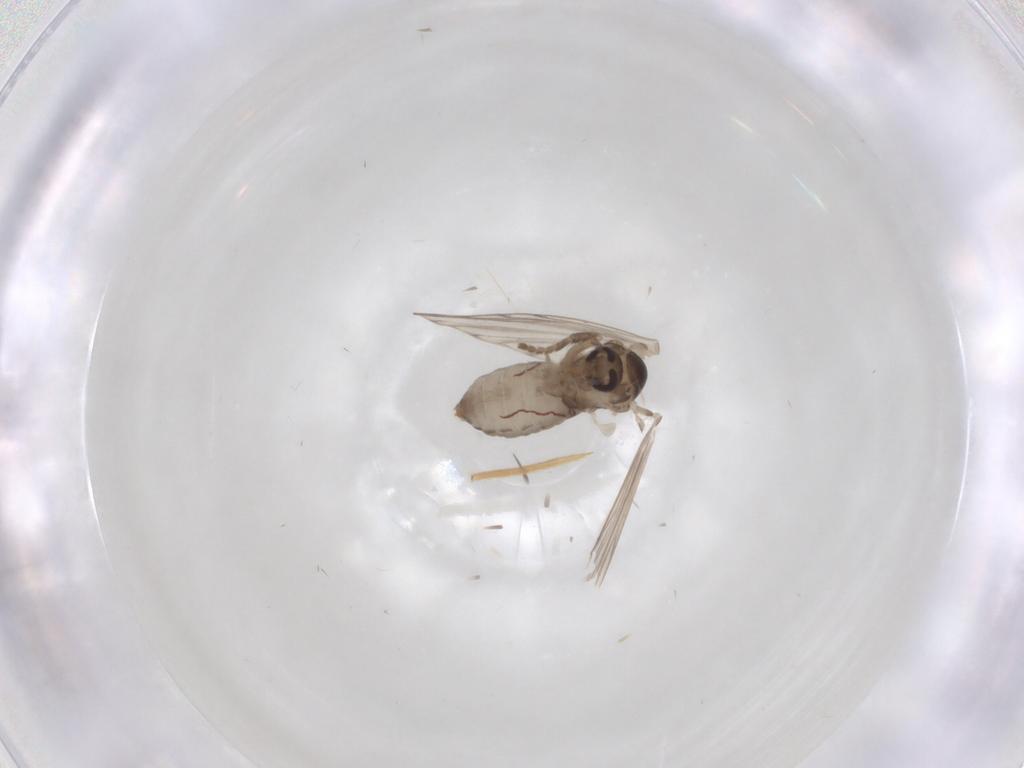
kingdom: Animalia
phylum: Arthropoda
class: Insecta
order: Diptera
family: Psychodidae
